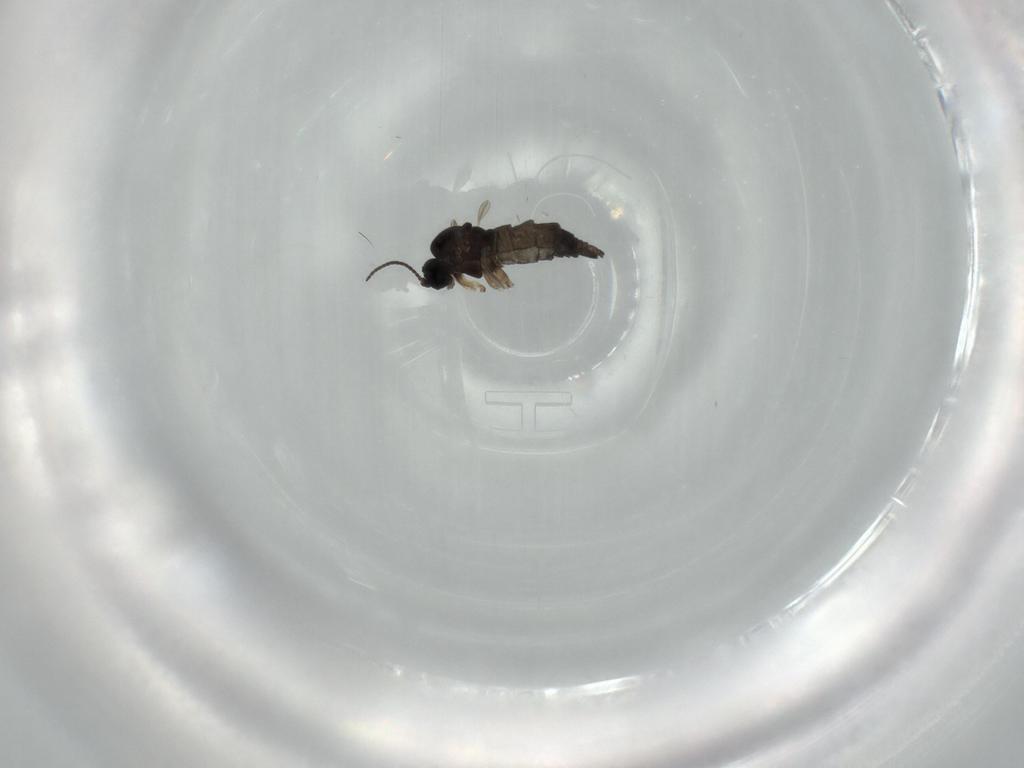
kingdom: Animalia
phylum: Arthropoda
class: Insecta
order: Diptera
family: Sciaridae
